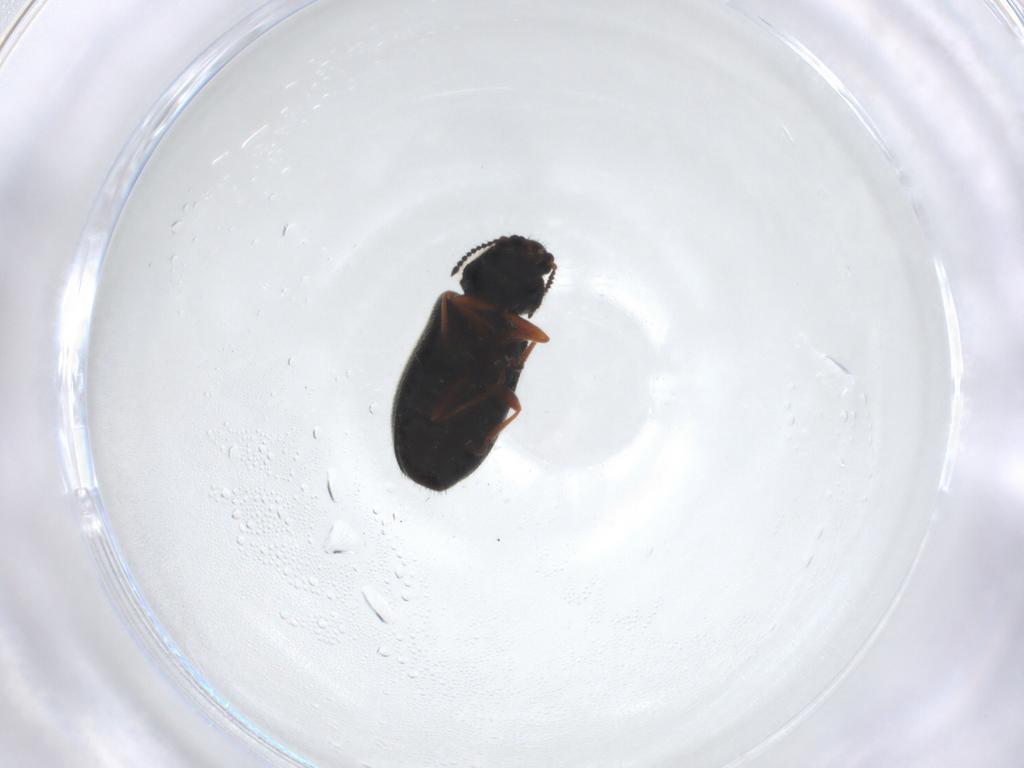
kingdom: Animalia
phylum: Arthropoda
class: Insecta
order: Coleoptera
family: Melyridae
